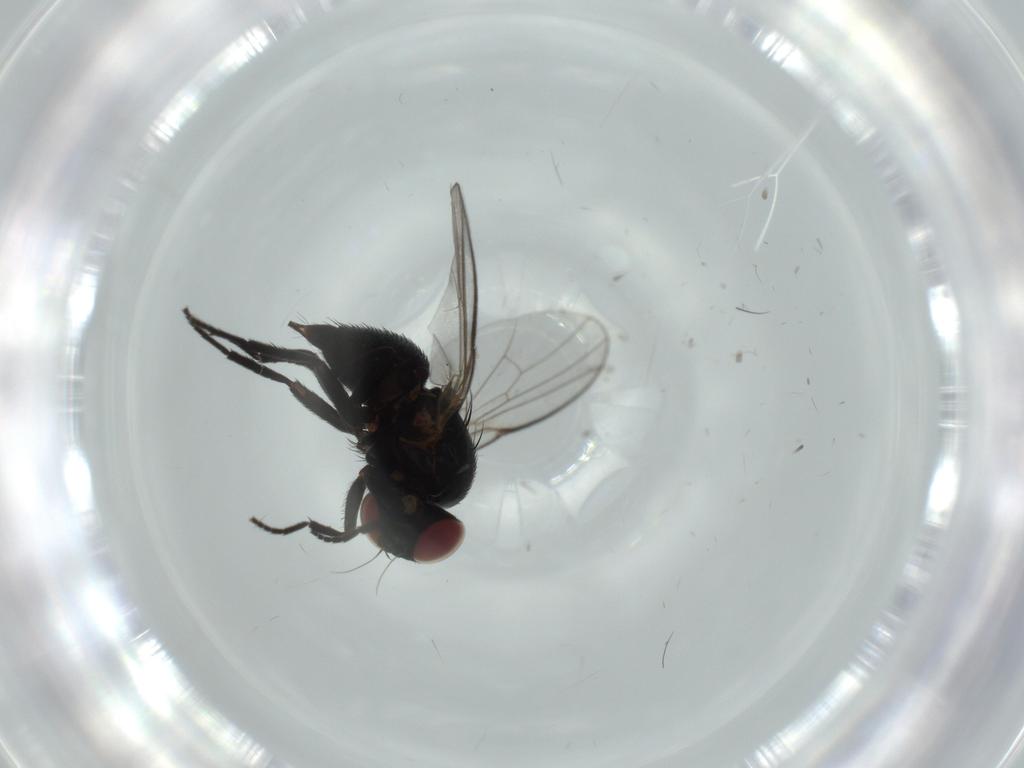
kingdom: Animalia
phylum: Arthropoda
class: Insecta
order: Diptera
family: Agromyzidae
